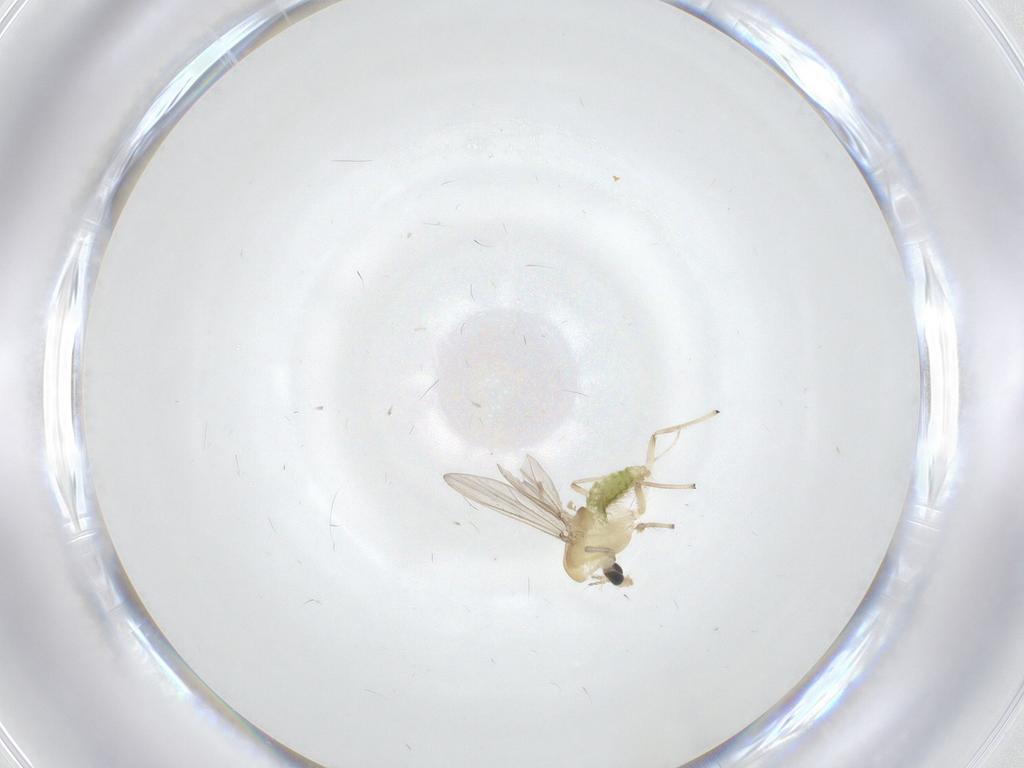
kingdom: Animalia
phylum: Arthropoda
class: Insecta
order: Diptera
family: Chironomidae
